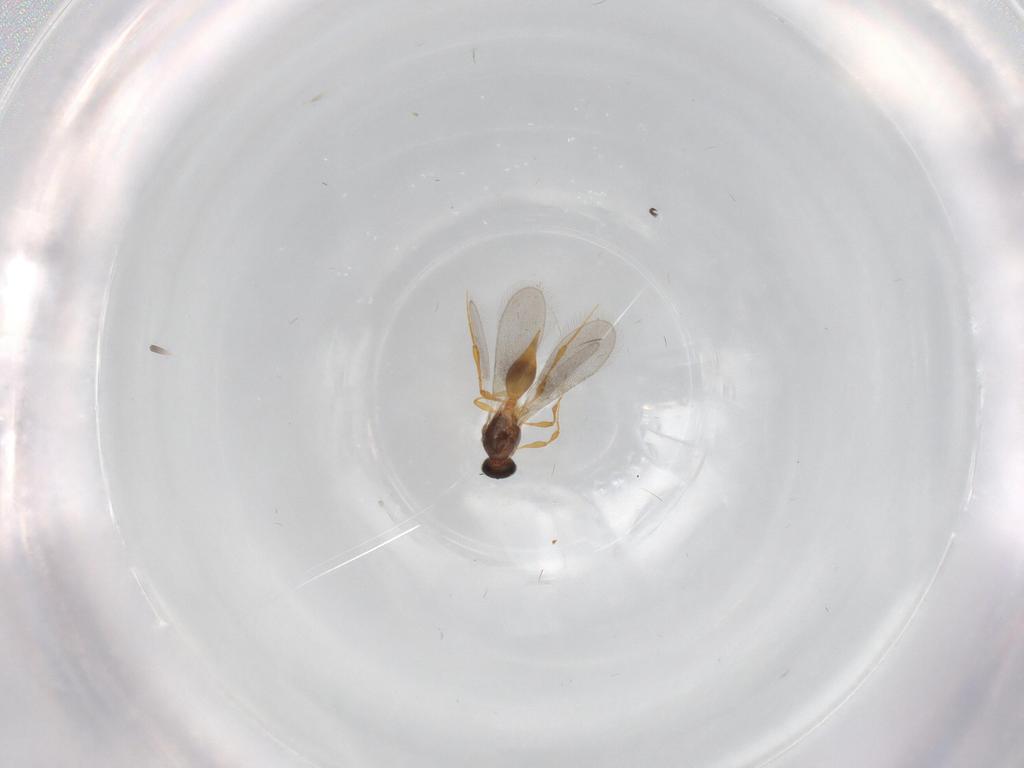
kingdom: Animalia
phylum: Arthropoda
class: Insecta
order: Hymenoptera
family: Platygastridae
